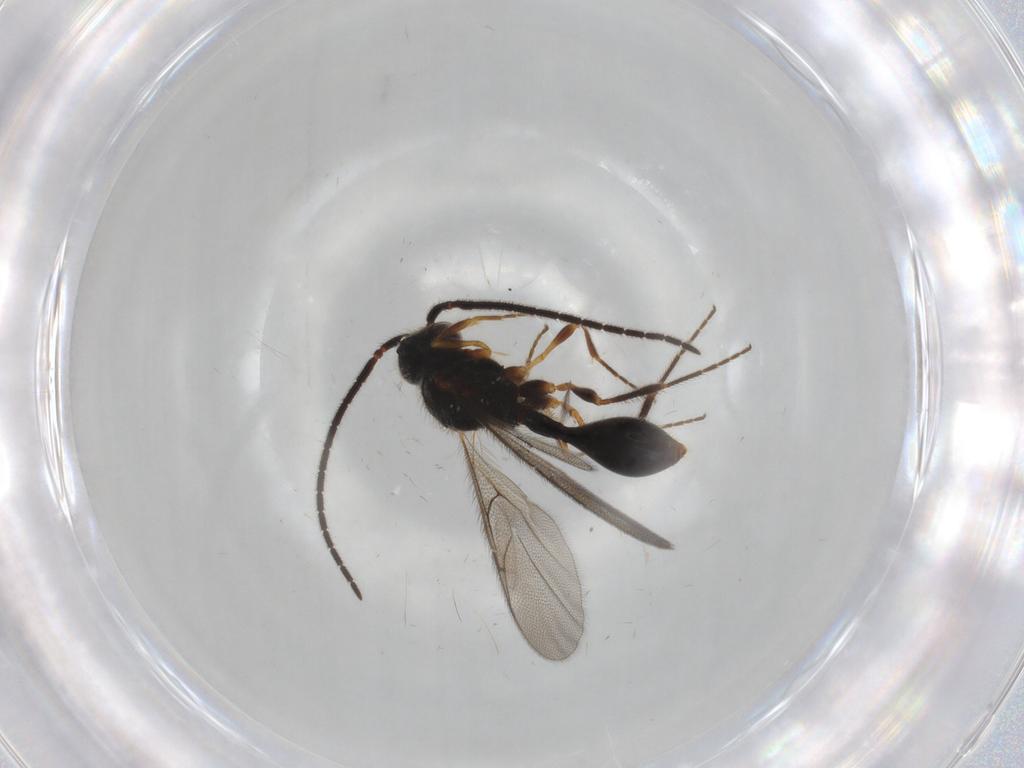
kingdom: Animalia
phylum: Arthropoda
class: Insecta
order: Hymenoptera
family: Diapriidae
